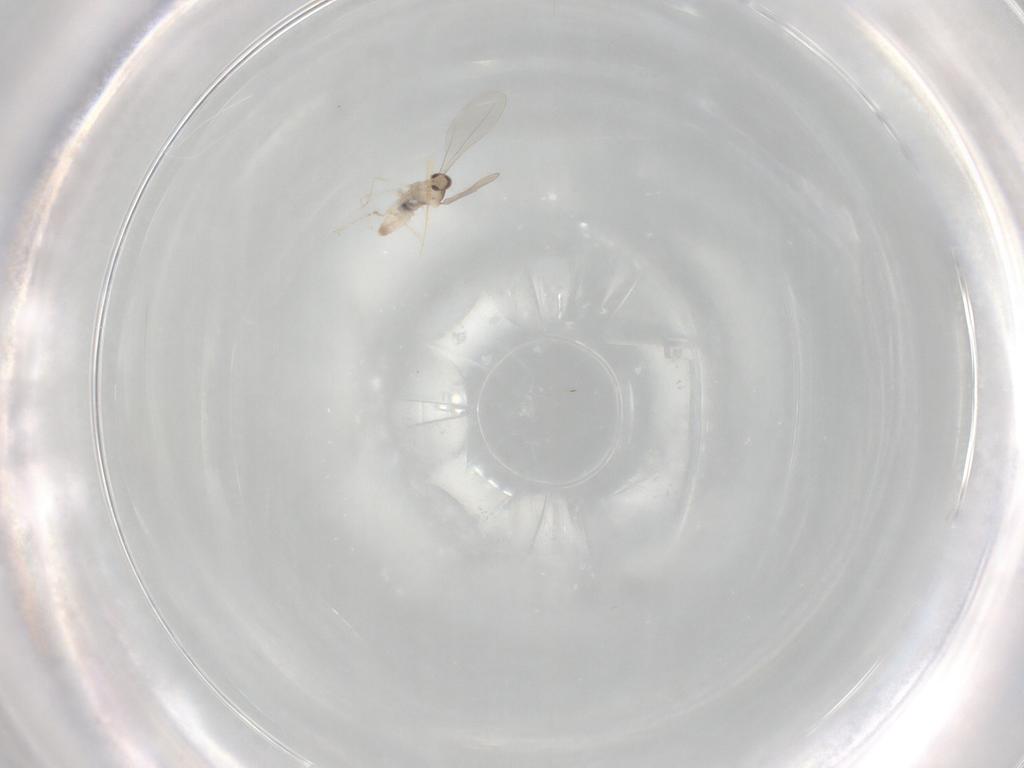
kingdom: Animalia
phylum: Arthropoda
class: Insecta
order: Diptera
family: Cecidomyiidae
